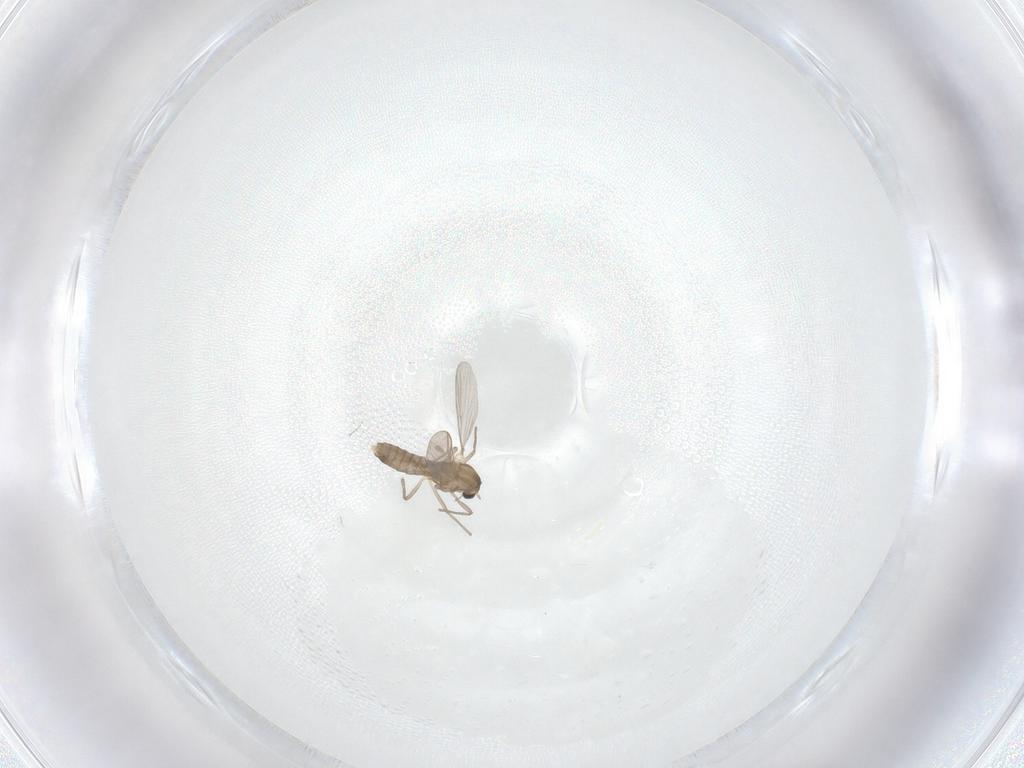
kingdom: Animalia
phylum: Arthropoda
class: Insecta
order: Diptera
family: Chironomidae
